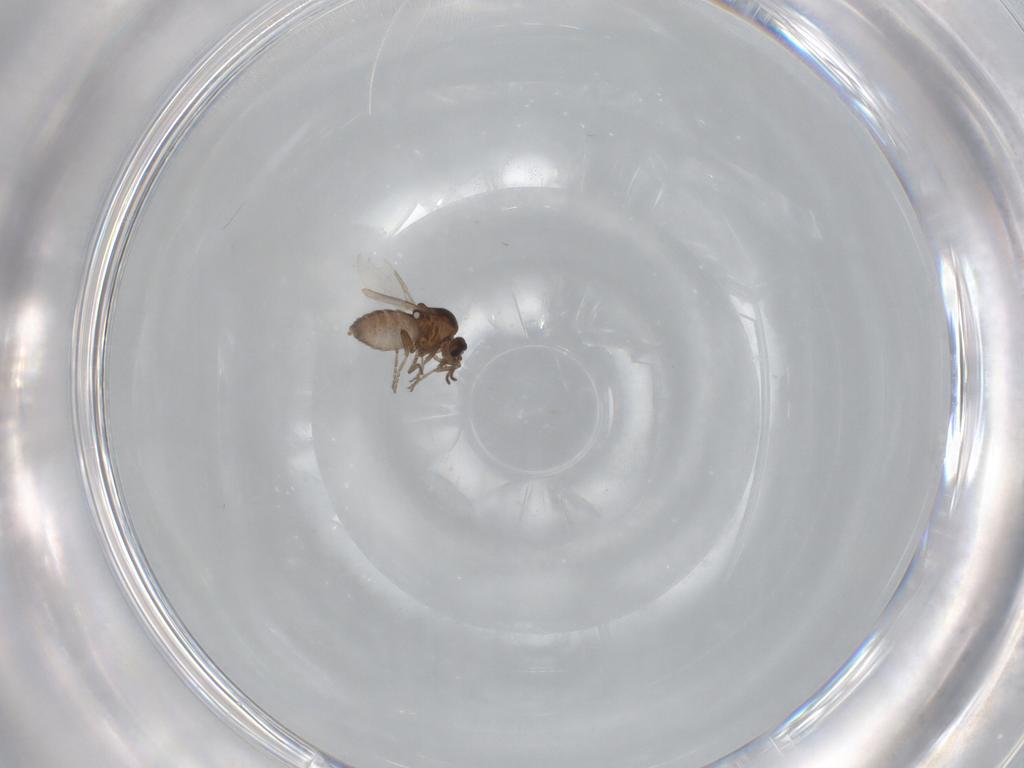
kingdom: Animalia
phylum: Arthropoda
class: Insecta
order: Diptera
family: Ceratopogonidae
